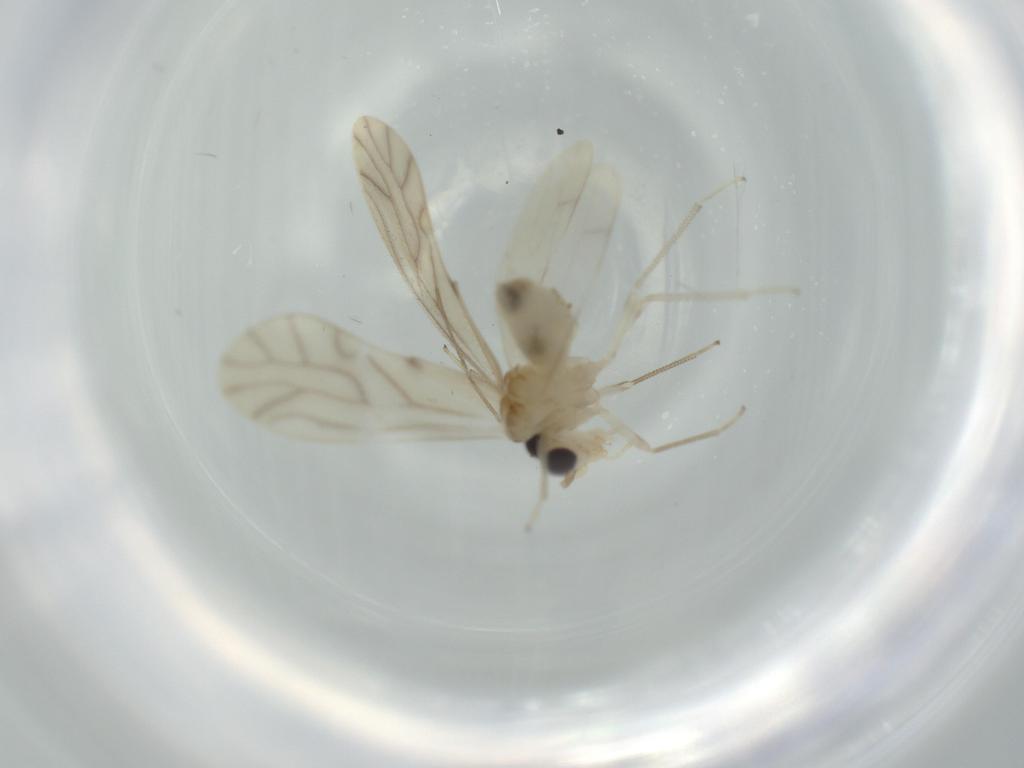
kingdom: Animalia
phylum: Arthropoda
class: Insecta
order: Psocodea
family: Caeciliusidae
